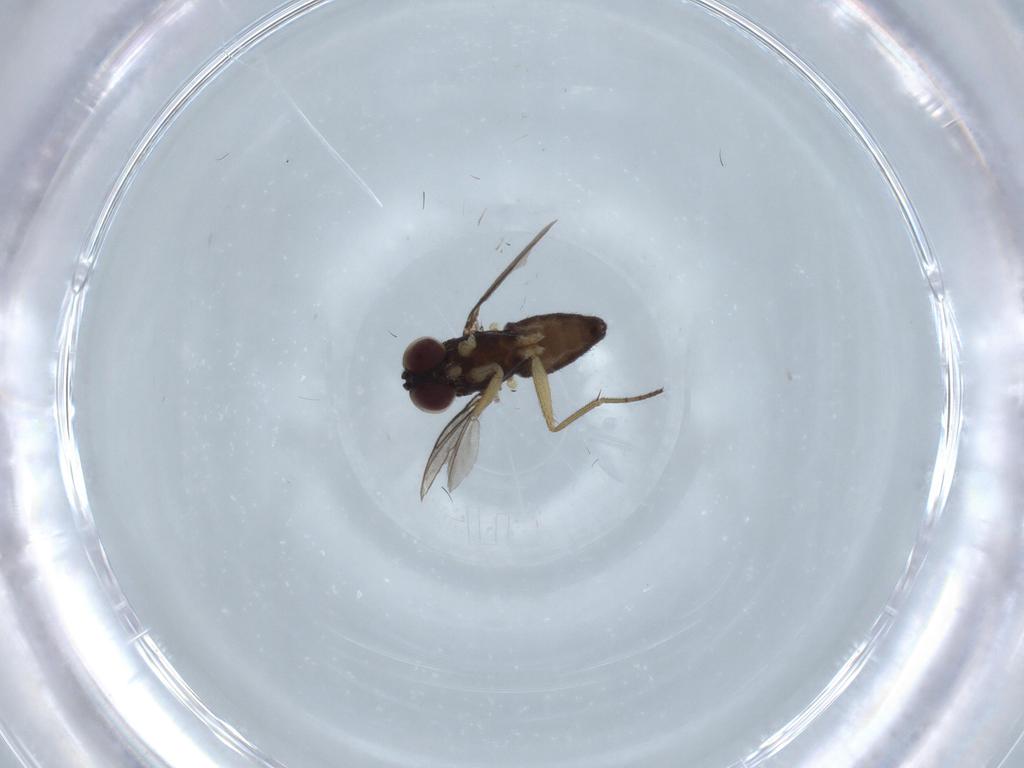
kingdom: Animalia
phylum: Arthropoda
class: Insecta
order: Diptera
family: Dolichopodidae
